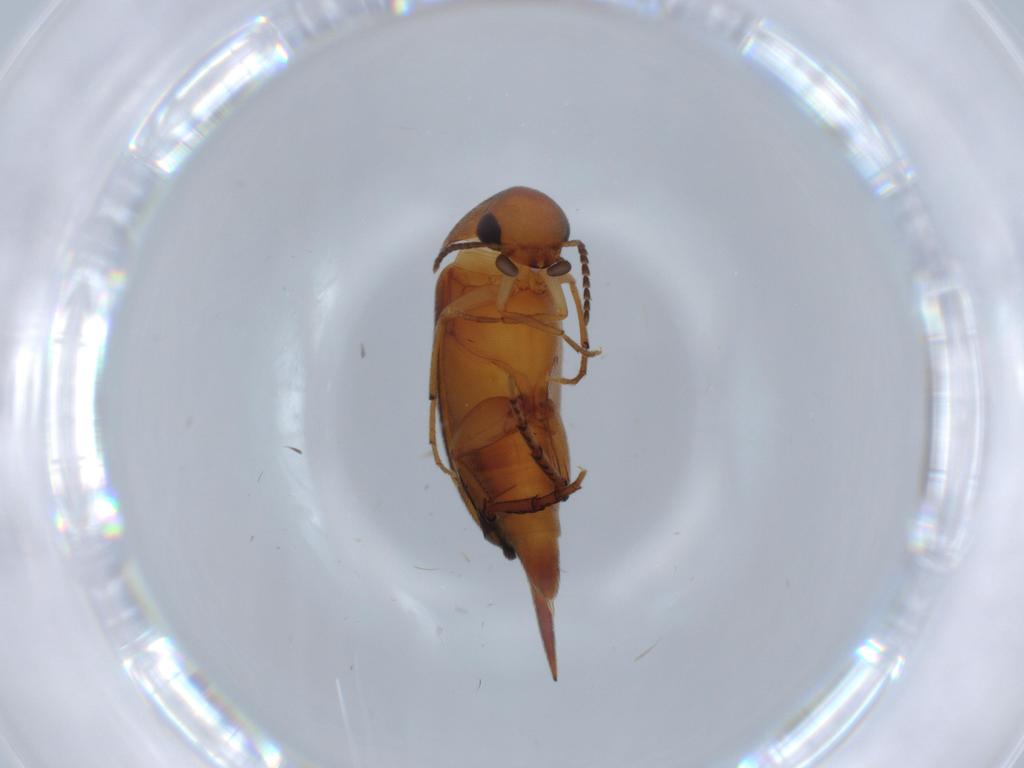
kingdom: Animalia
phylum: Arthropoda
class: Insecta
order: Coleoptera
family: Mordellidae
